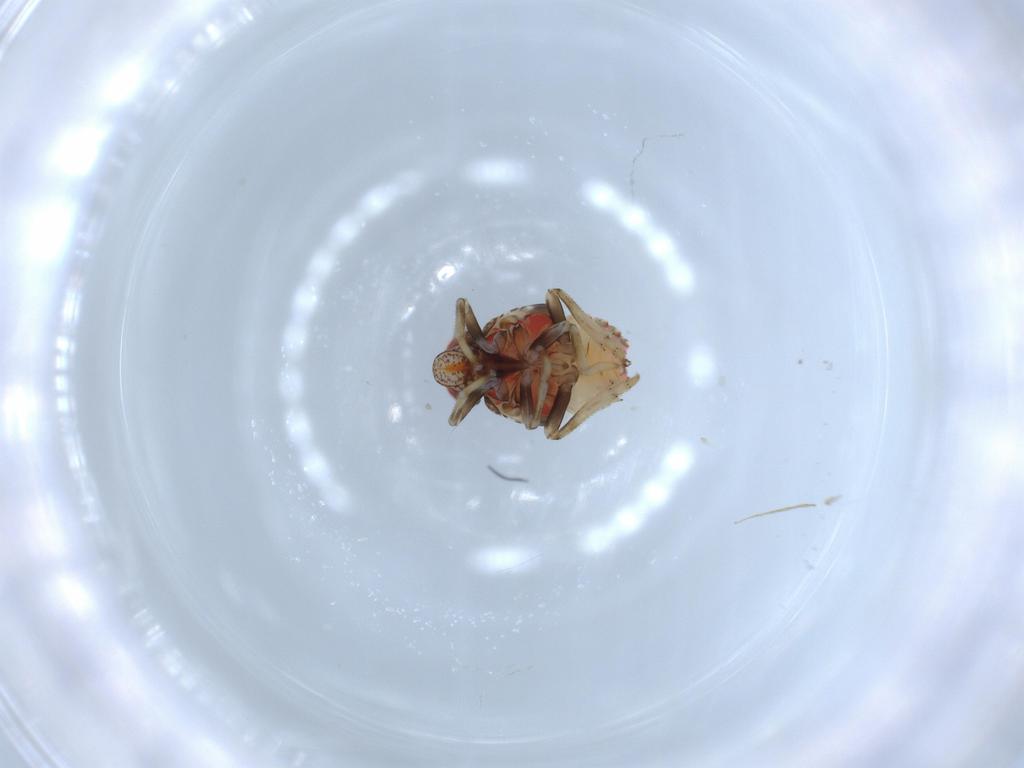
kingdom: Animalia
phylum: Arthropoda
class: Insecta
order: Hemiptera
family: Issidae
